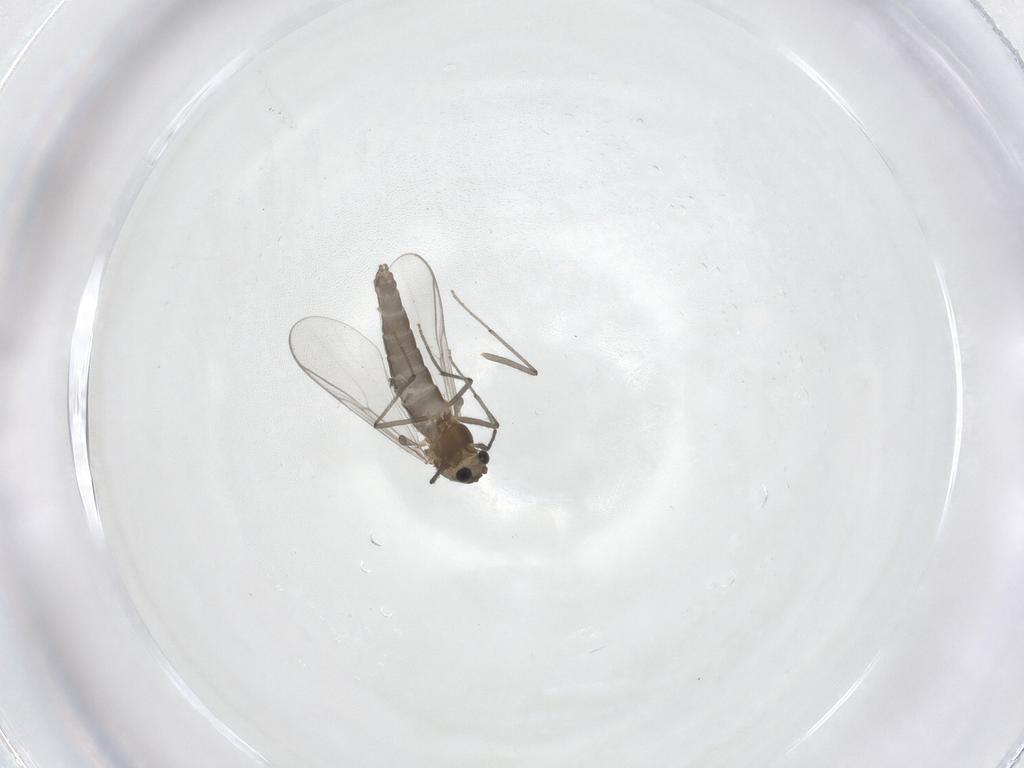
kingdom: Animalia
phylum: Arthropoda
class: Insecta
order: Diptera
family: Chironomidae
